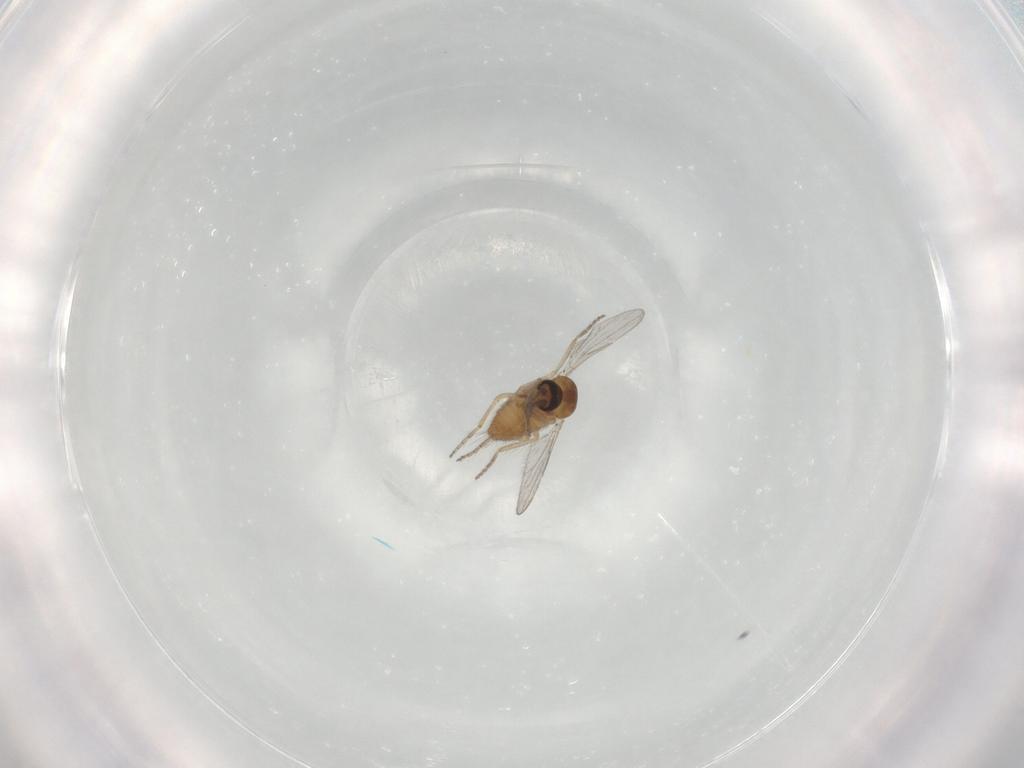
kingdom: Animalia
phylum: Arthropoda
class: Insecta
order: Diptera
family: Ceratopogonidae
